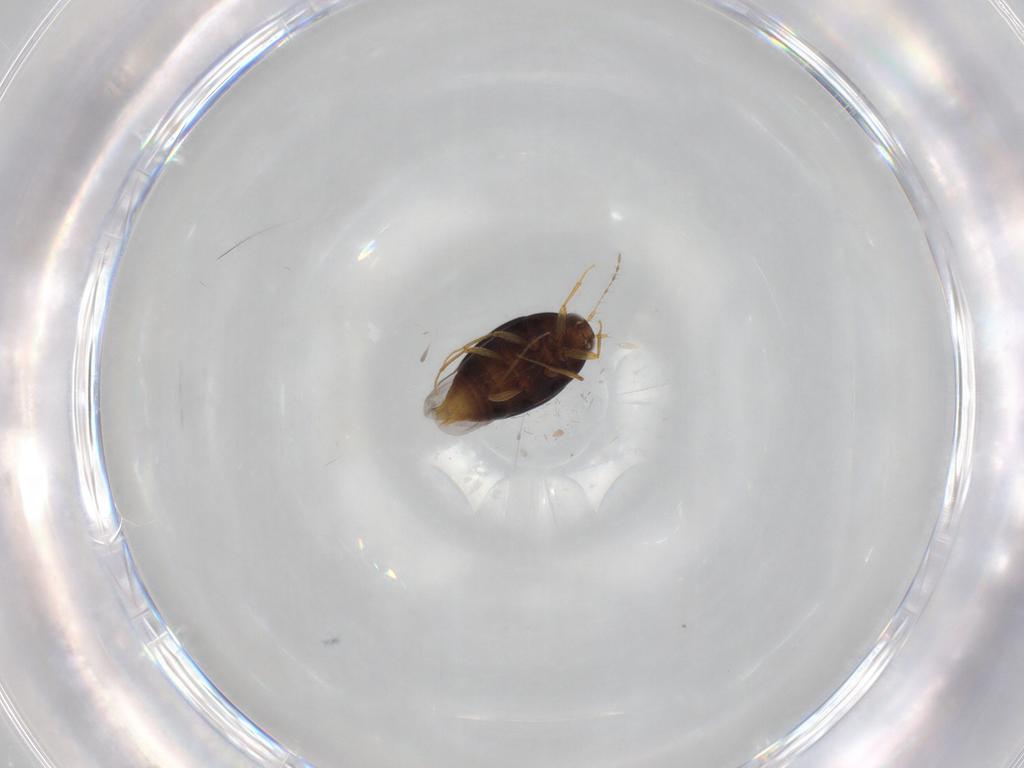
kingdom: Animalia
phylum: Arthropoda
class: Insecta
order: Coleoptera
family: Staphylinidae
